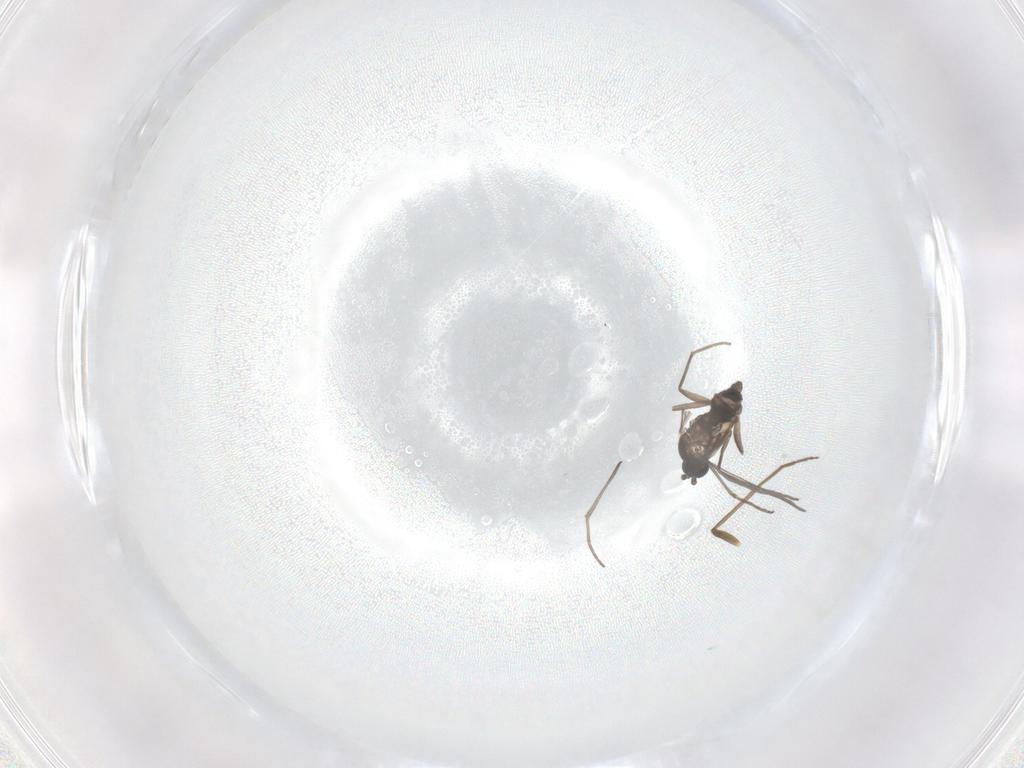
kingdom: Animalia
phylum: Arthropoda
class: Insecta
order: Diptera
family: Sciaridae
